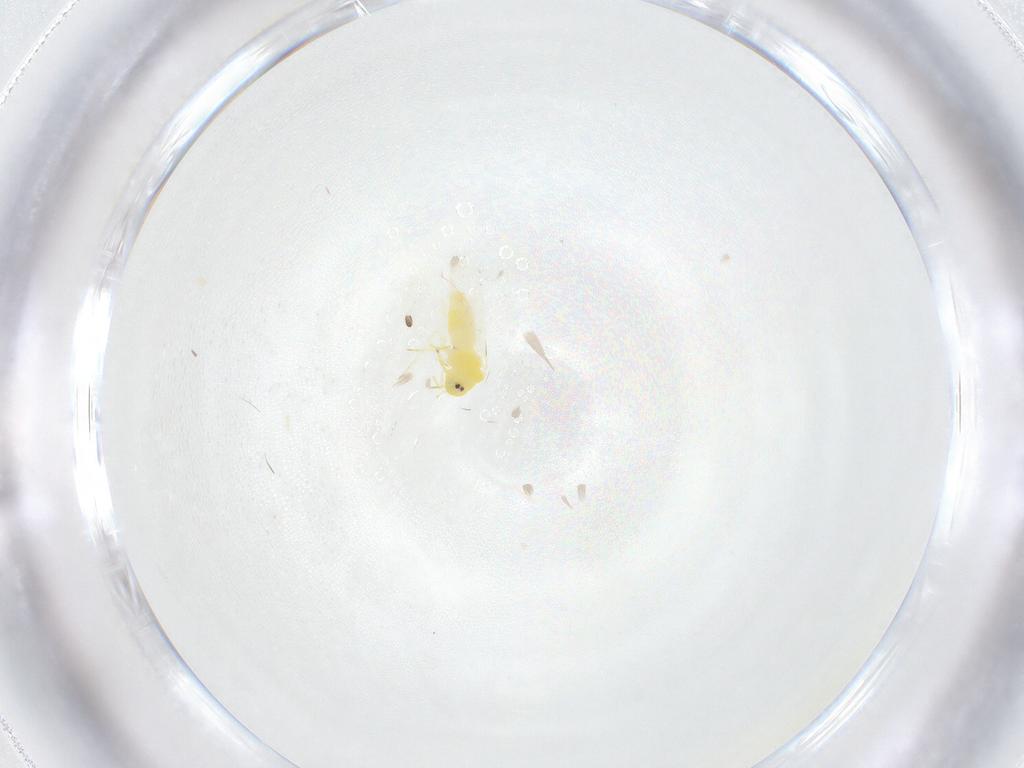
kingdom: Animalia
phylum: Arthropoda
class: Insecta
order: Hemiptera
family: Aleyrodidae
